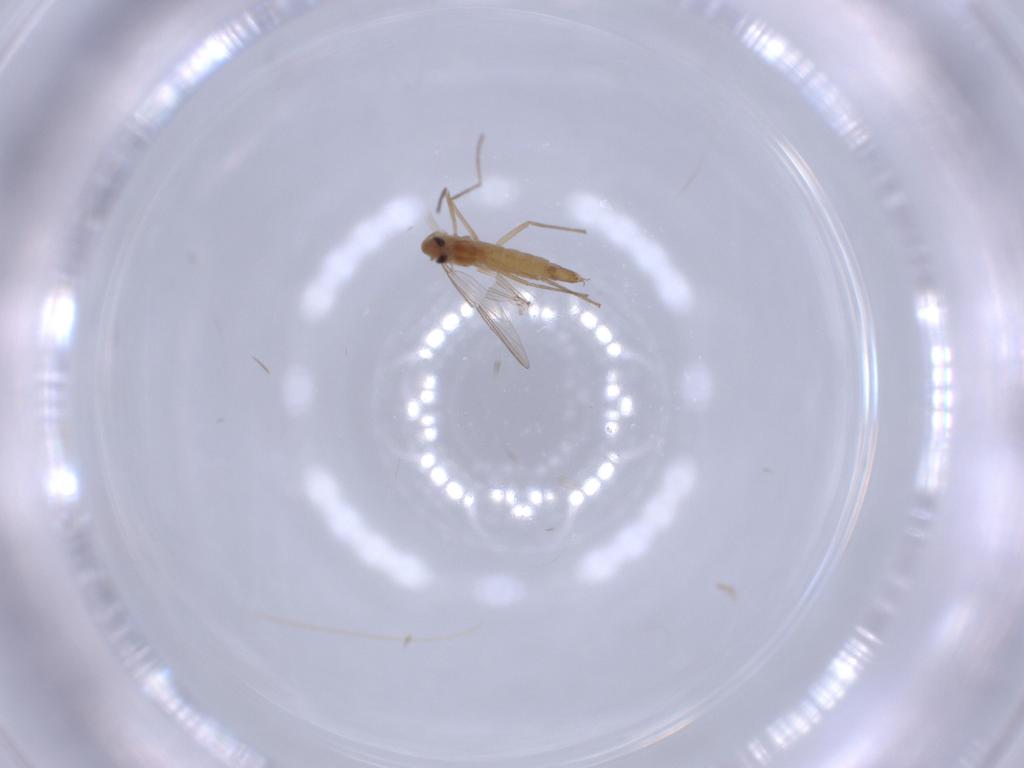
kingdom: Animalia
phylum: Arthropoda
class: Insecta
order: Diptera
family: Chironomidae
